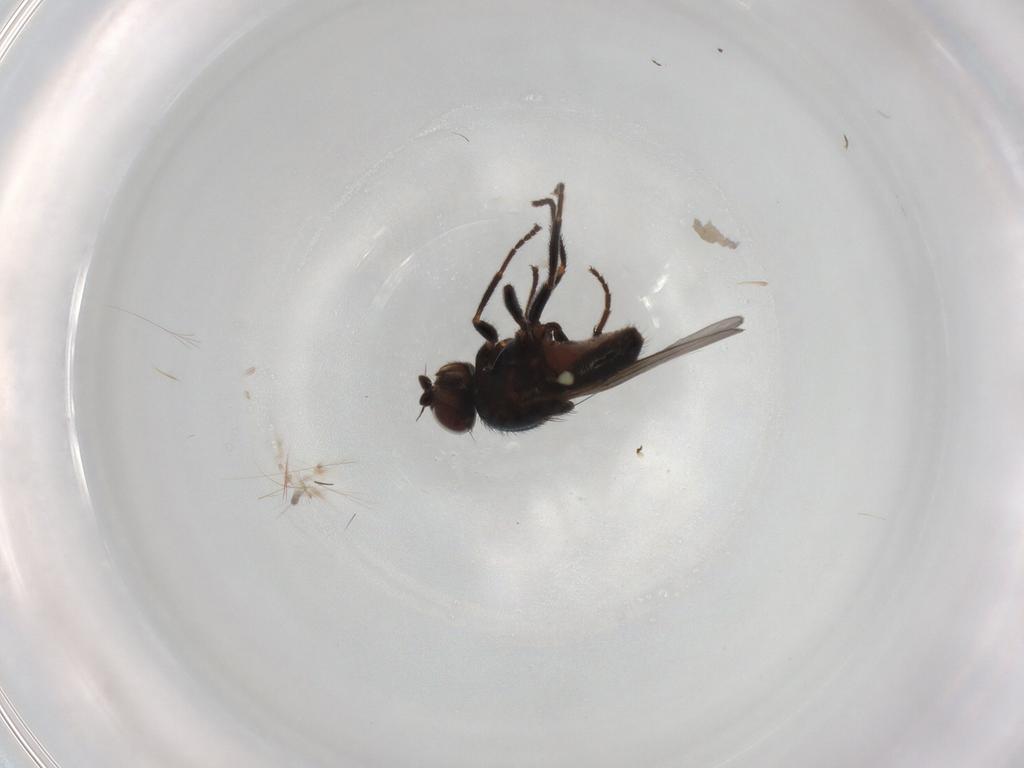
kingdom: Animalia
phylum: Arthropoda
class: Insecta
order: Diptera
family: Chloropidae
